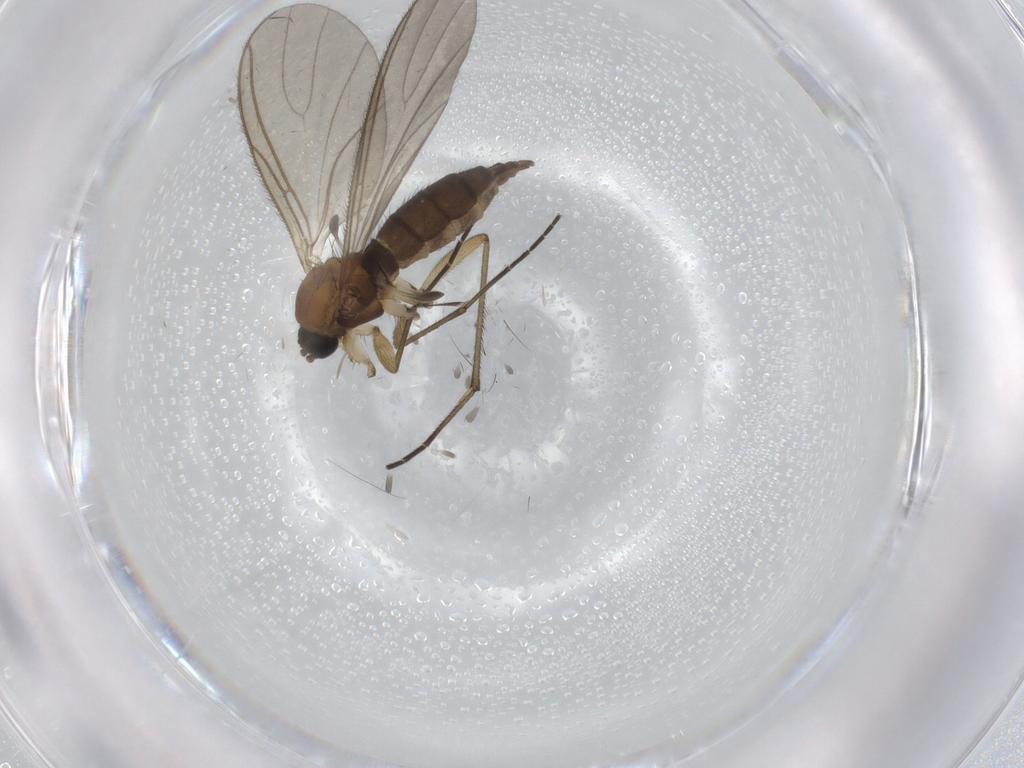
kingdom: Animalia
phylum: Arthropoda
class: Insecta
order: Diptera
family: Sciaridae
